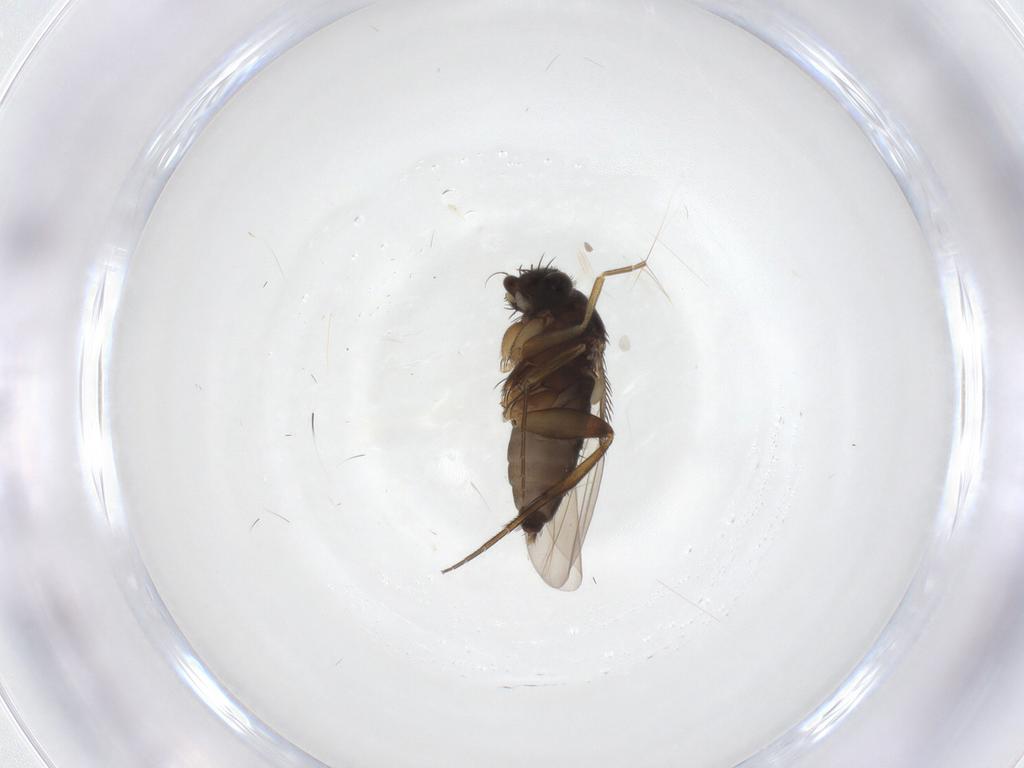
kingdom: Animalia
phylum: Arthropoda
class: Insecta
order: Diptera
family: Phoridae
